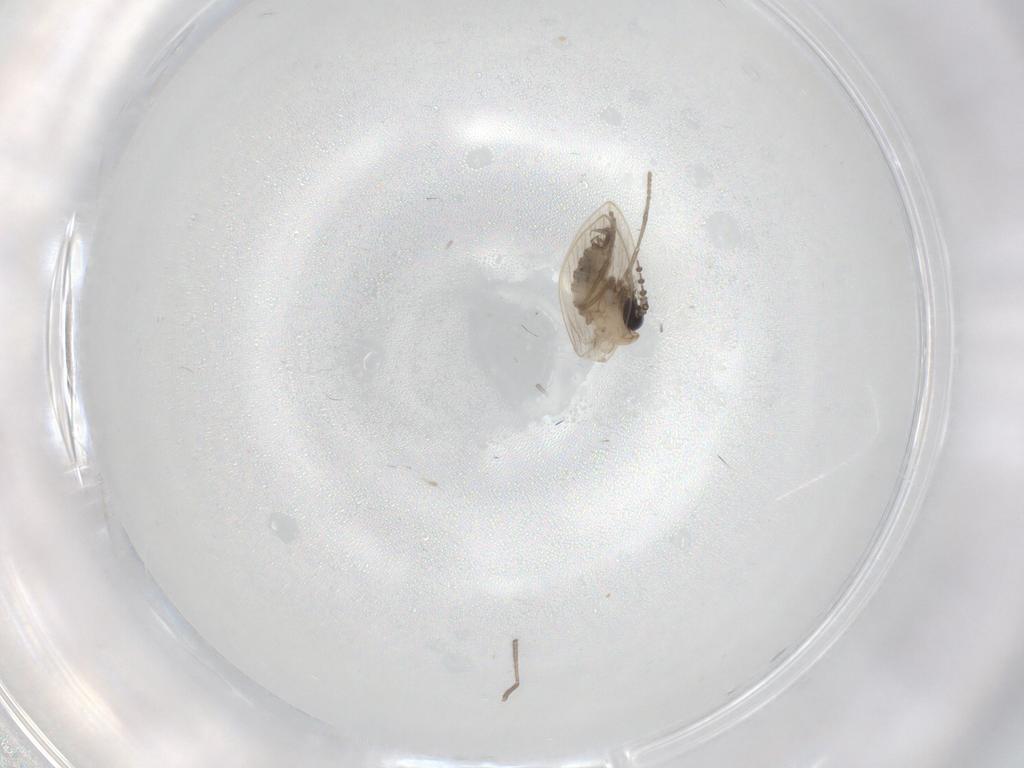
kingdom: Animalia
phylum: Arthropoda
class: Insecta
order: Diptera
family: Psychodidae
